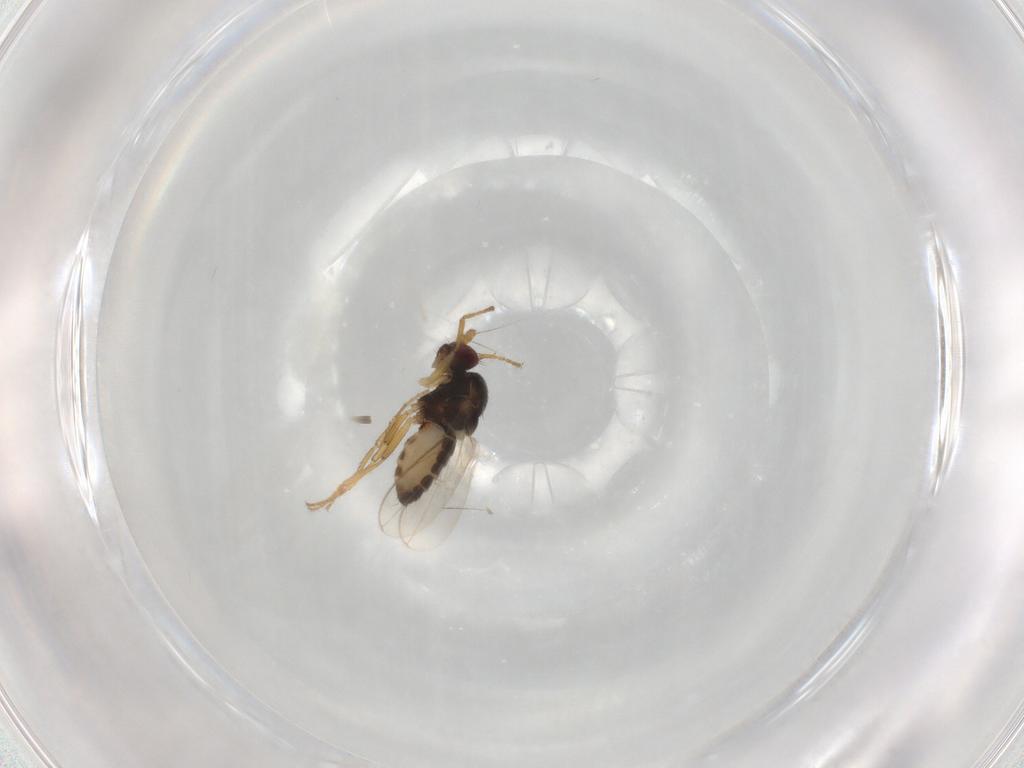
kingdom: Animalia
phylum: Arthropoda
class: Insecta
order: Diptera
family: Sphaeroceridae
